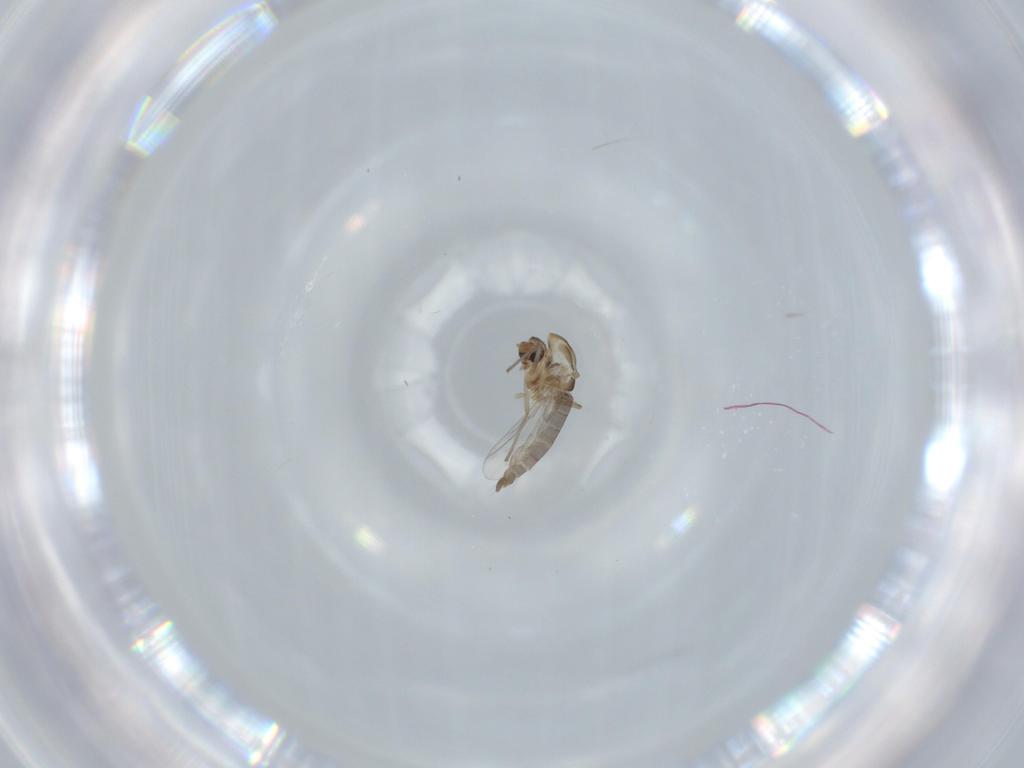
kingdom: Animalia
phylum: Arthropoda
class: Insecta
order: Diptera
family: Chironomidae
